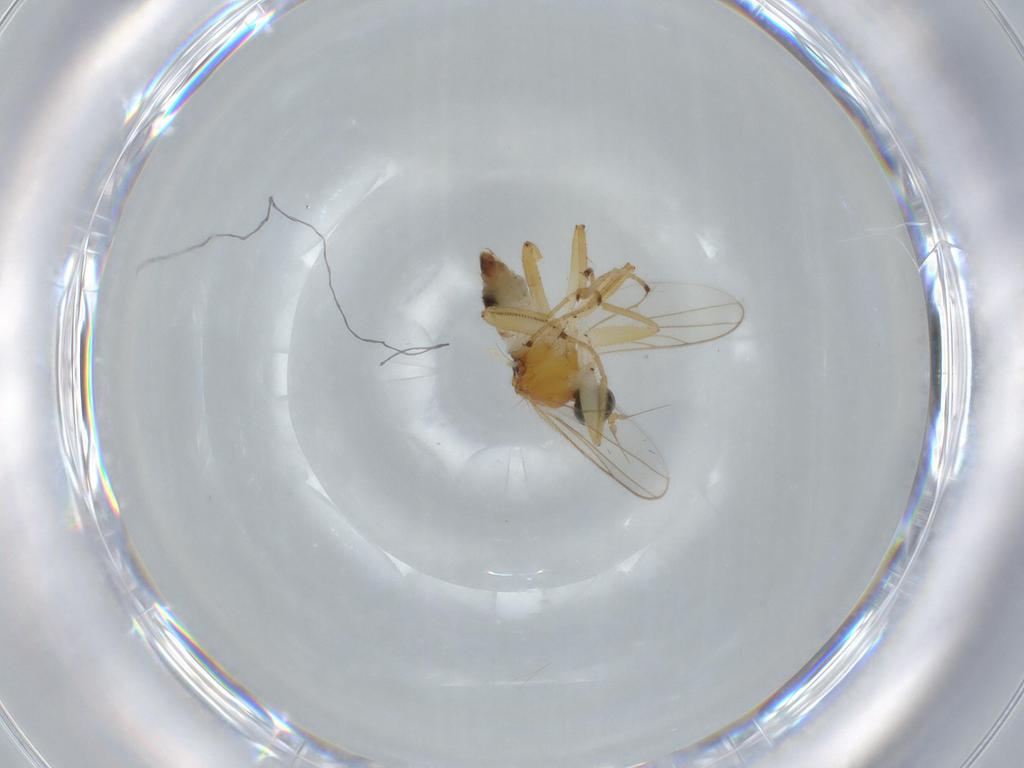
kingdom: Animalia
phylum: Arthropoda
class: Insecta
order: Diptera
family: Hybotidae
